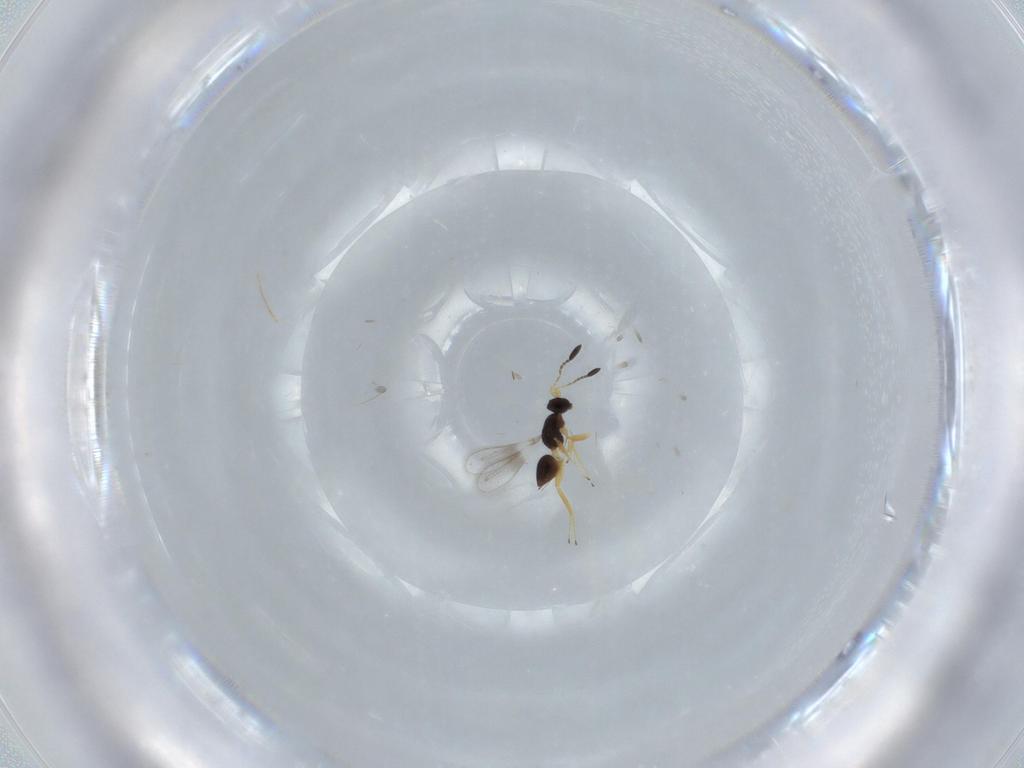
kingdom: Animalia
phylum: Arthropoda
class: Insecta
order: Hymenoptera
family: Mymaridae
